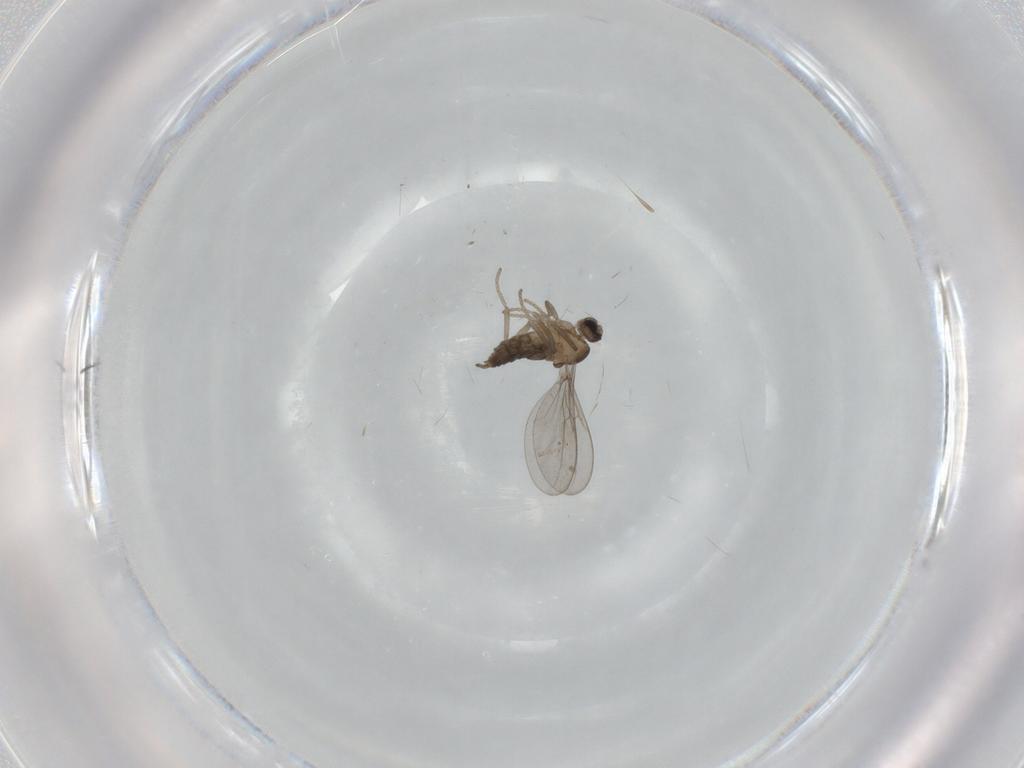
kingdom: Animalia
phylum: Arthropoda
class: Insecta
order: Diptera
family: Cecidomyiidae
